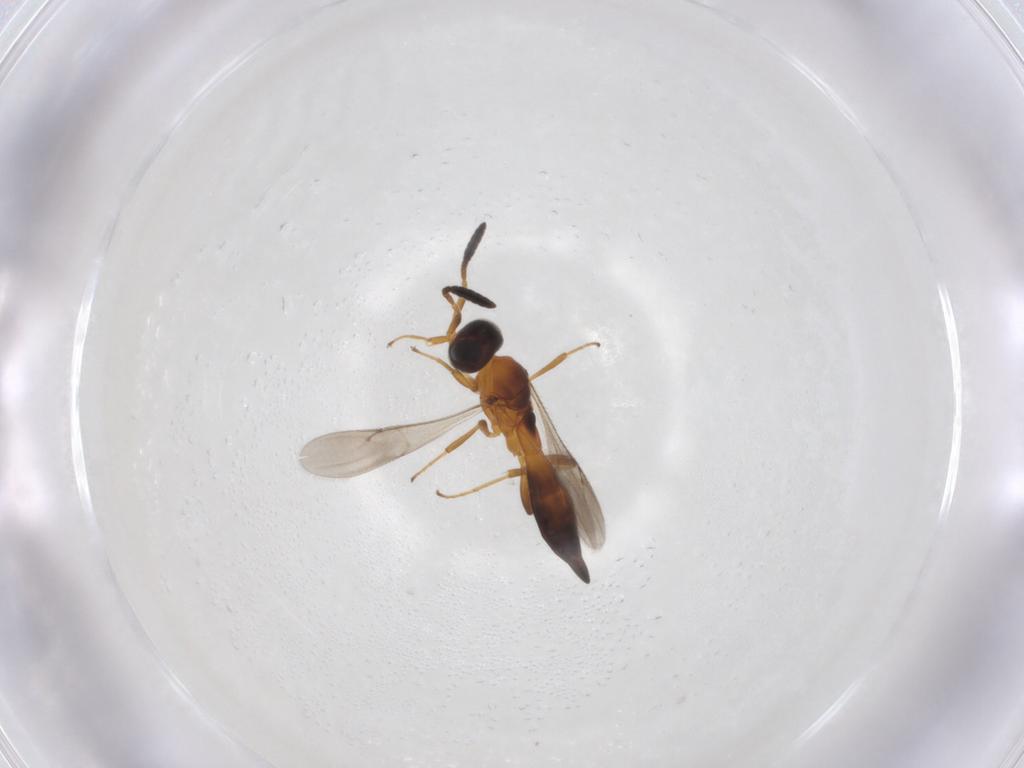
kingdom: Animalia
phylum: Arthropoda
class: Insecta
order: Hymenoptera
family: Scelionidae
